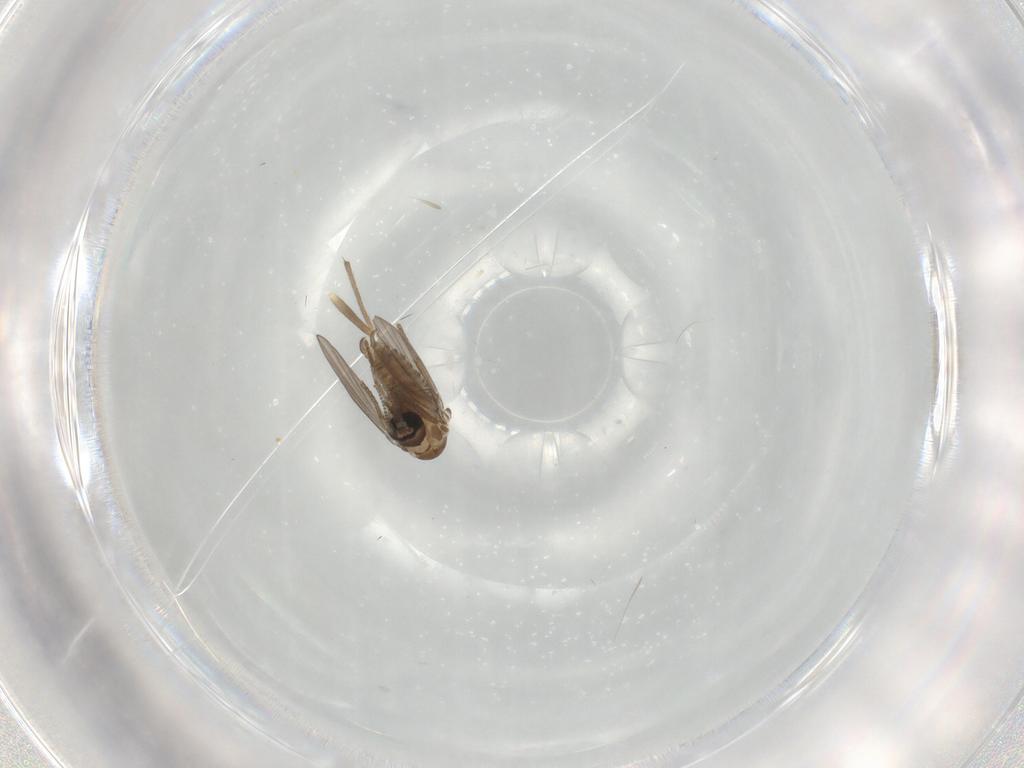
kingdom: Animalia
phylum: Arthropoda
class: Insecta
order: Diptera
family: Psychodidae
